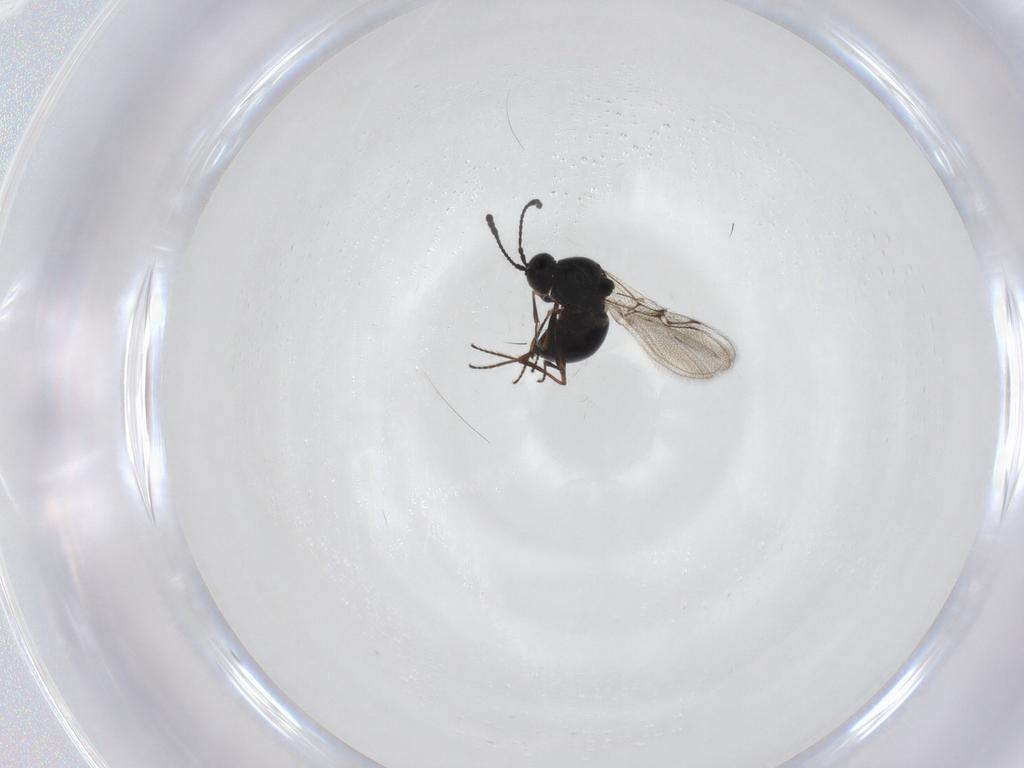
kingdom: Animalia
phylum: Arthropoda
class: Insecta
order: Hymenoptera
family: Figitidae
